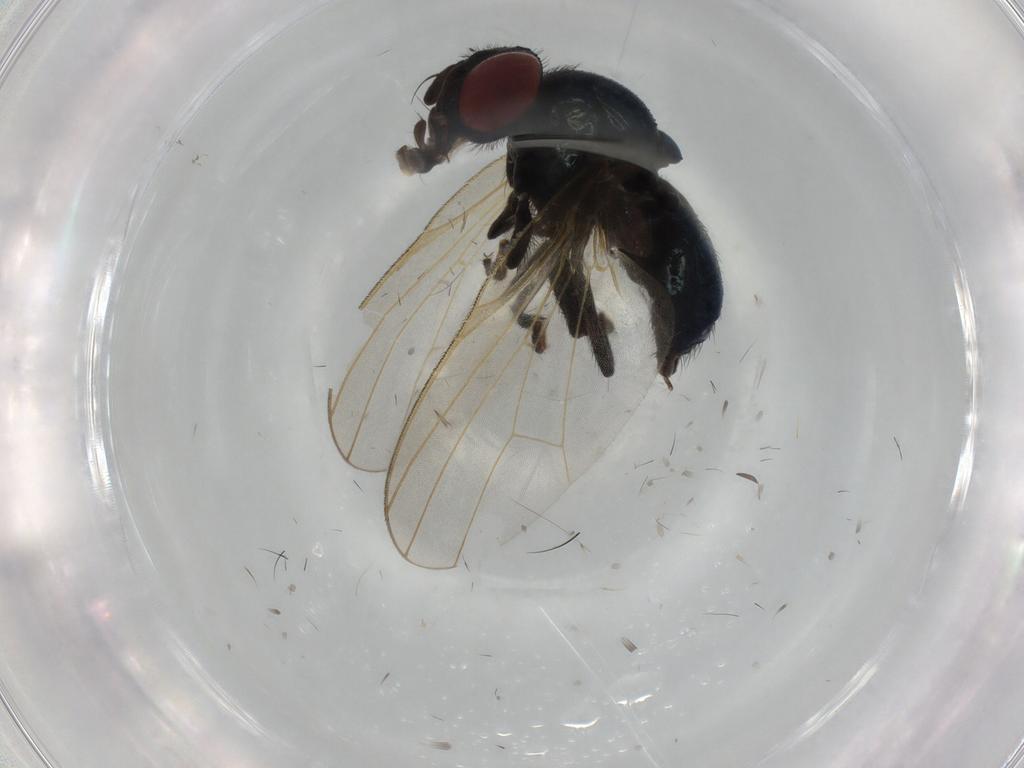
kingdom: Animalia
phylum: Arthropoda
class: Insecta
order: Diptera
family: Lonchaeidae
